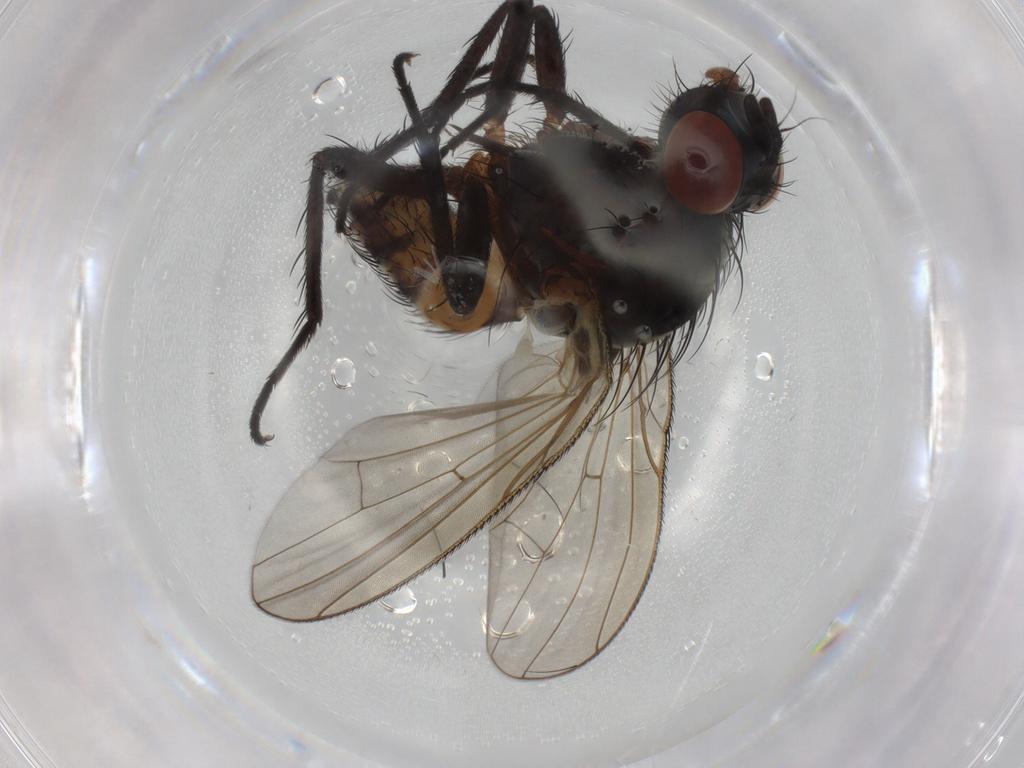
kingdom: Animalia
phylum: Arthropoda
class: Insecta
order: Diptera
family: Anthomyiidae
